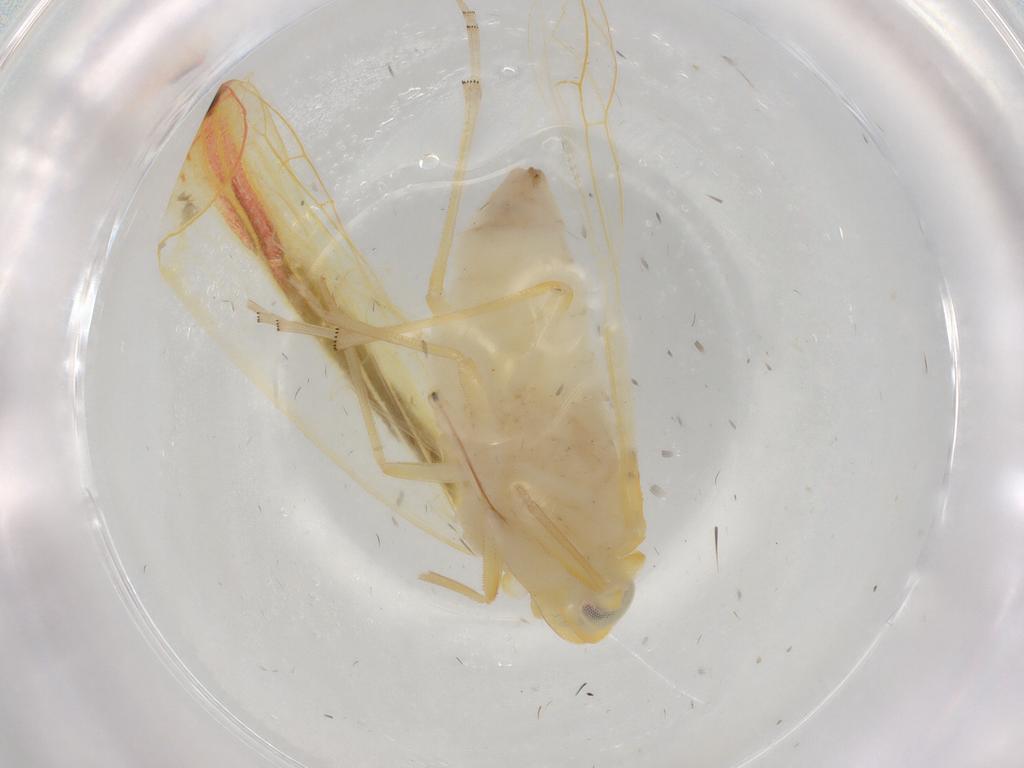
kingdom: Animalia
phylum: Arthropoda
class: Insecta
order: Hemiptera
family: Derbidae
